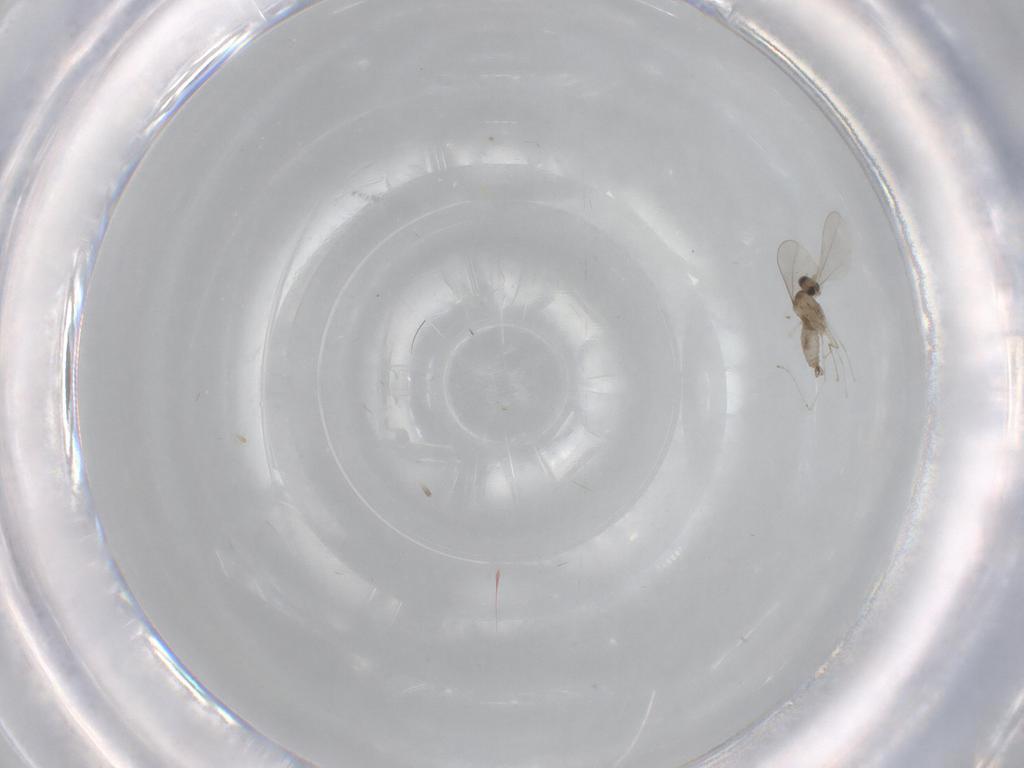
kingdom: Animalia
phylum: Arthropoda
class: Insecta
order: Diptera
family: Cecidomyiidae
